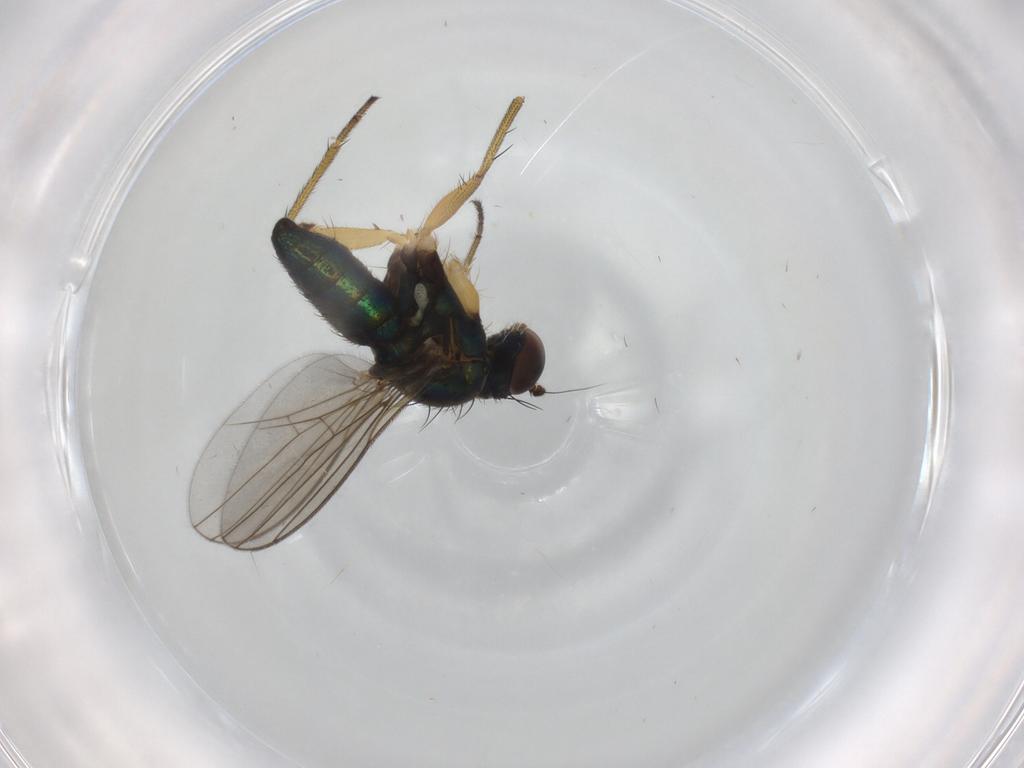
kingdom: Animalia
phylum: Arthropoda
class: Insecta
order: Diptera
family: Dolichopodidae
